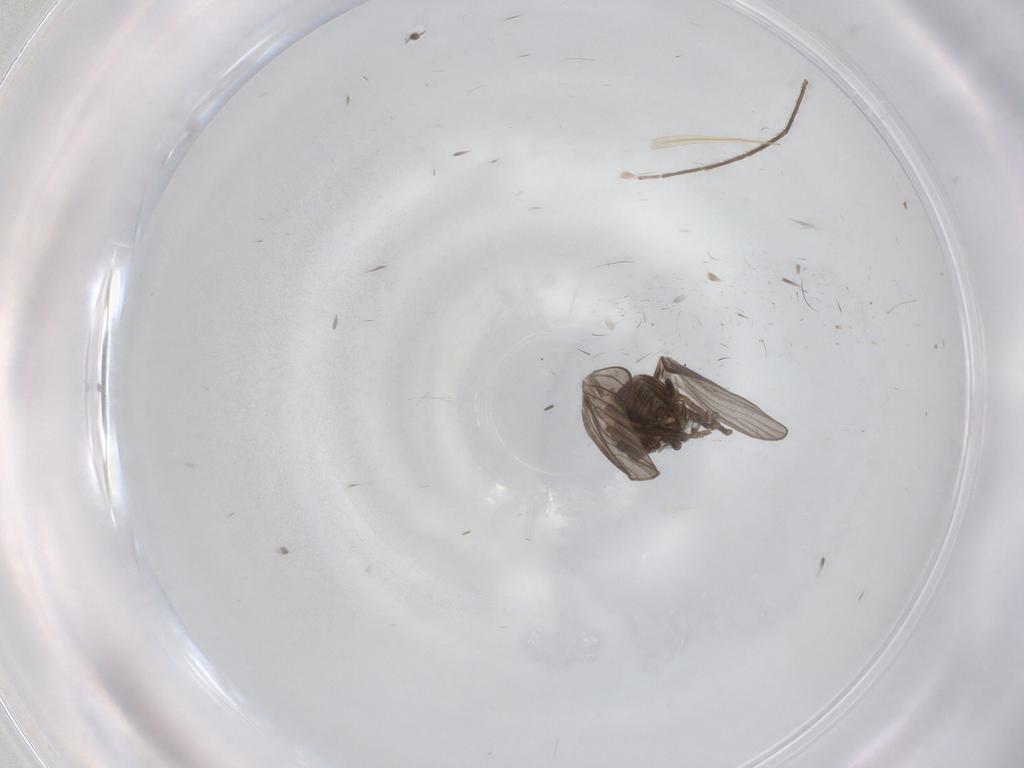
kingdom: Animalia
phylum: Arthropoda
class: Insecta
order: Diptera
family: Psychodidae
